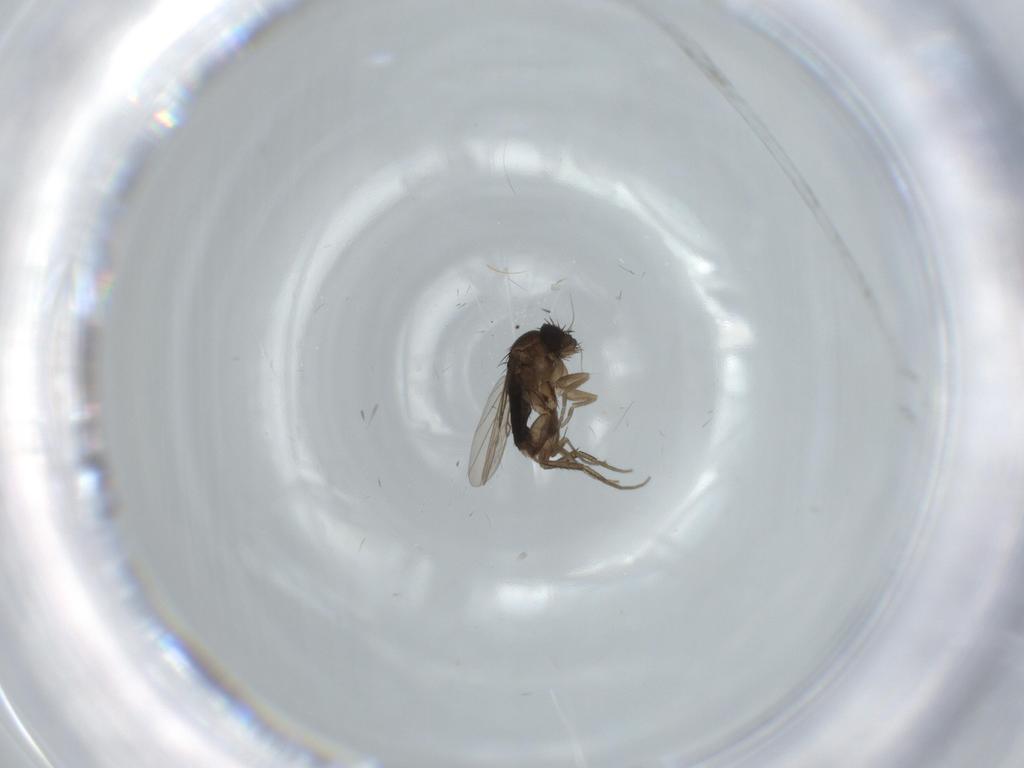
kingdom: Animalia
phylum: Arthropoda
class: Insecta
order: Diptera
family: Phoridae
